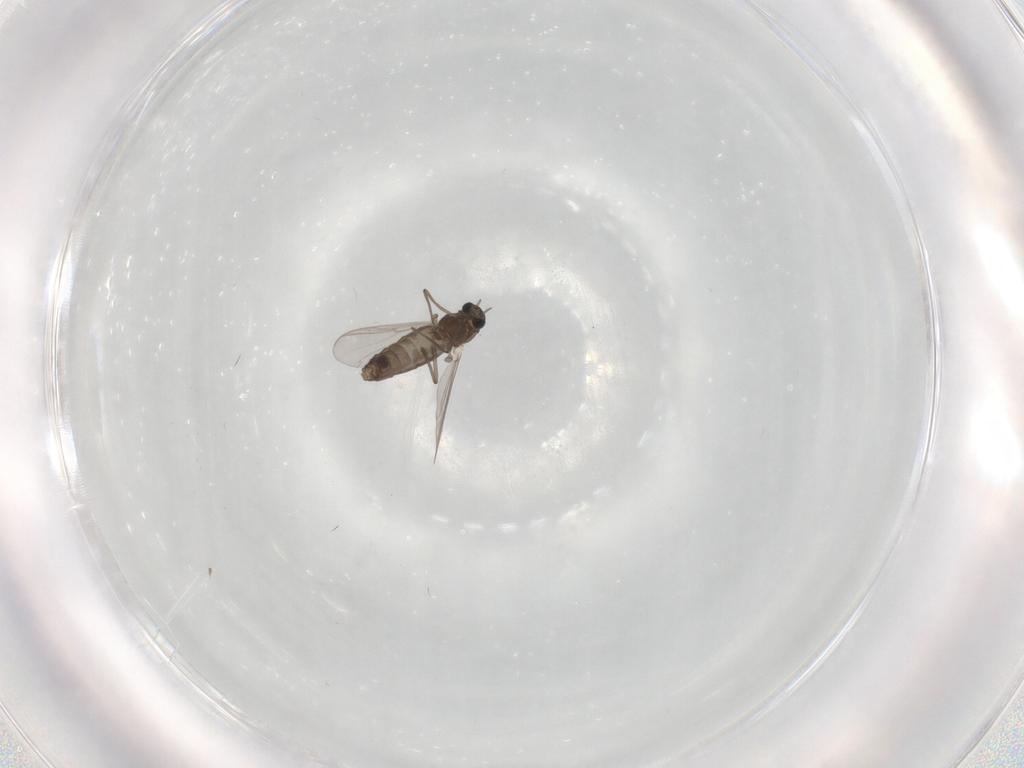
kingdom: Animalia
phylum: Arthropoda
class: Insecta
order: Diptera
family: Chironomidae
